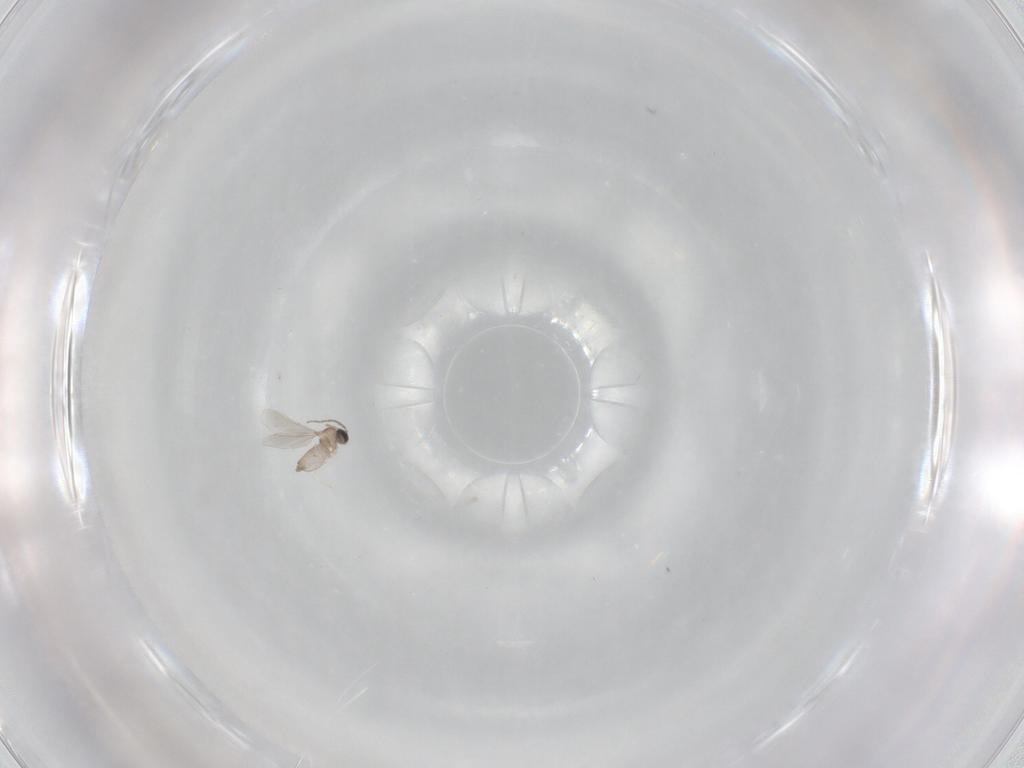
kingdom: Animalia
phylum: Arthropoda
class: Insecta
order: Diptera
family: Cecidomyiidae
